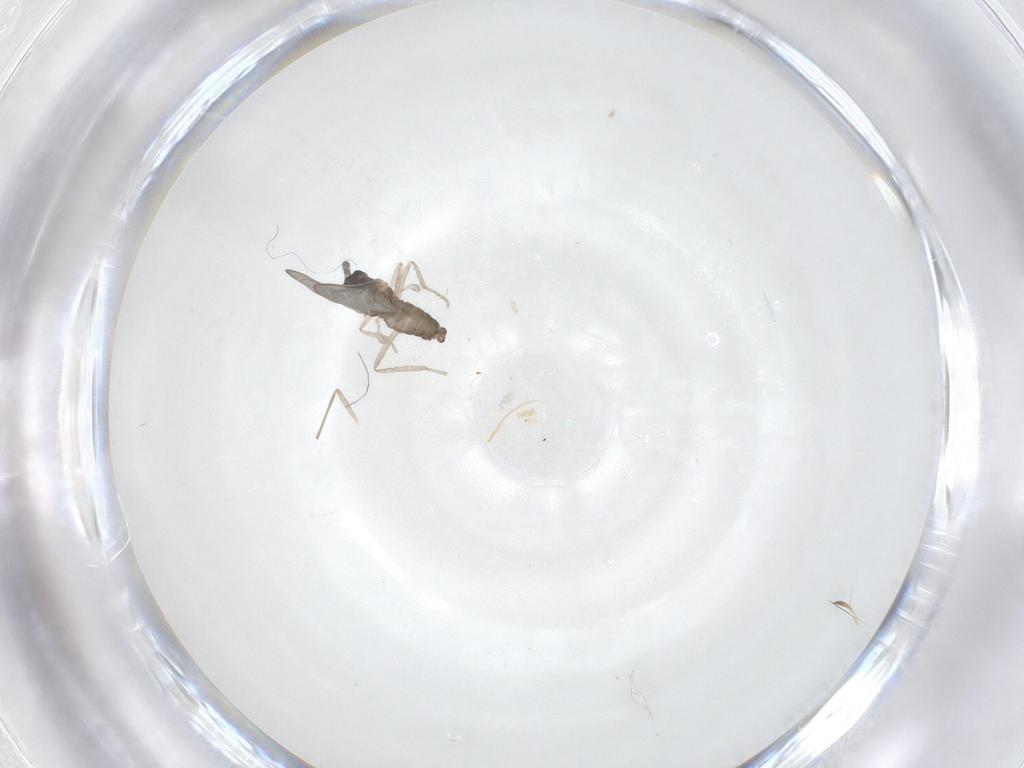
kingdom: Animalia
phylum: Arthropoda
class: Insecta
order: Diptera
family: Cecidomyiidae
